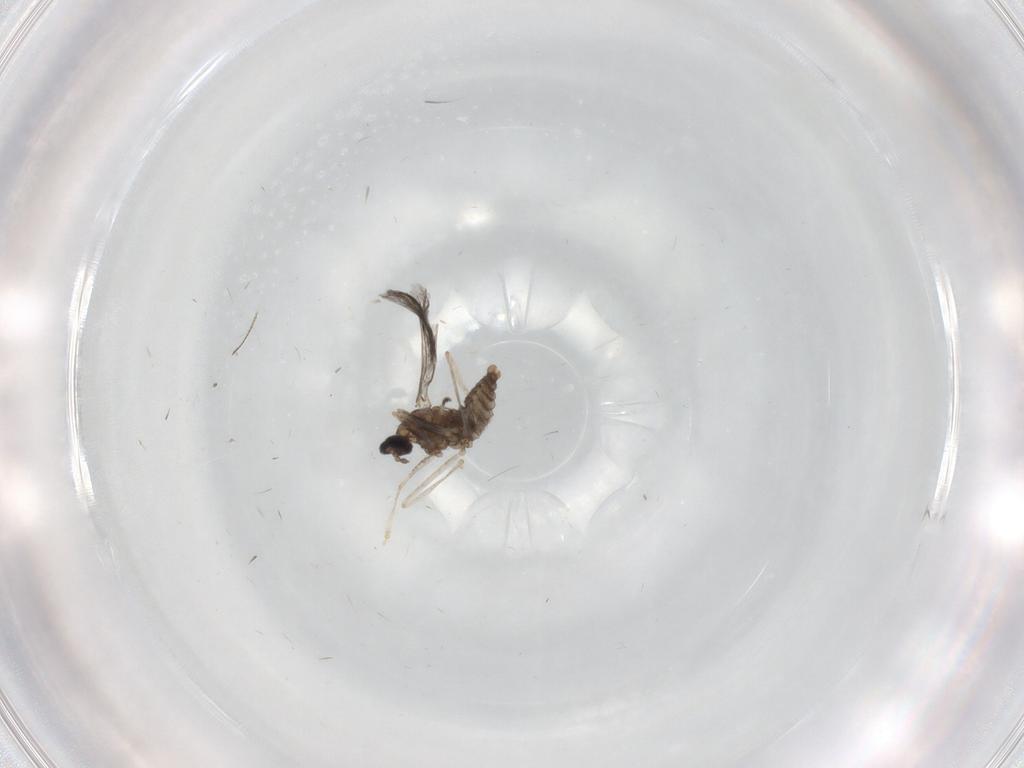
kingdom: Animalia
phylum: Arthropoda
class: Insecta
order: Diptera
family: Cecidomyiidae
